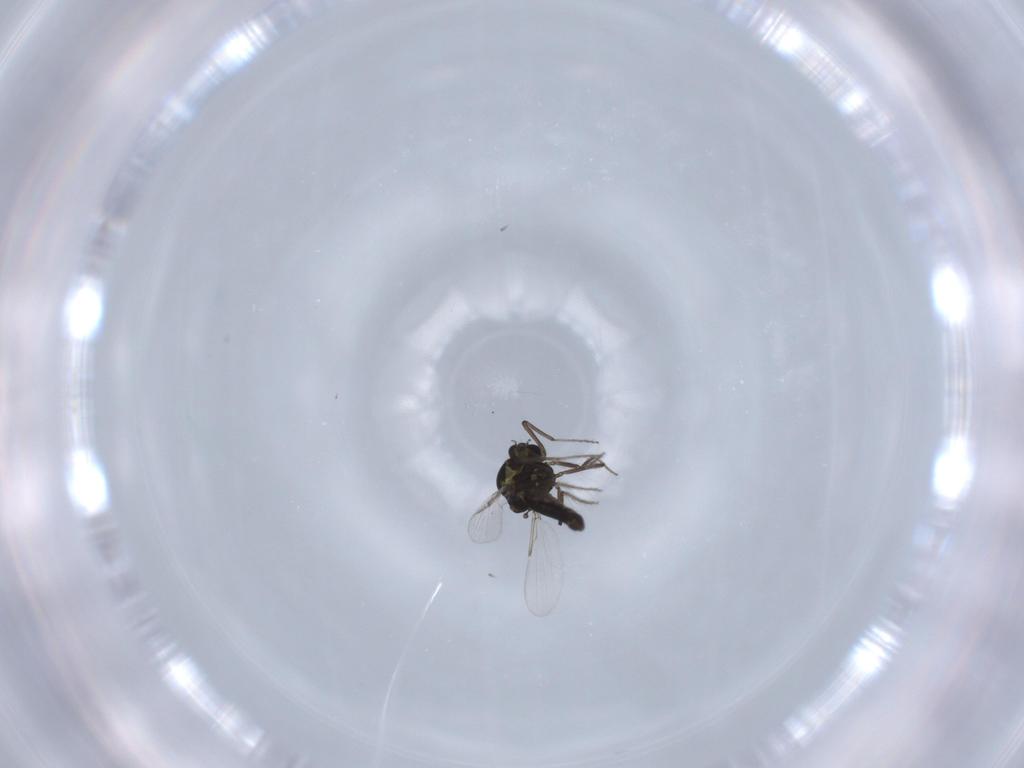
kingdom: Animalia
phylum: Arthropoda
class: Insecta
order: Diptera
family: Ceratopogonidae
